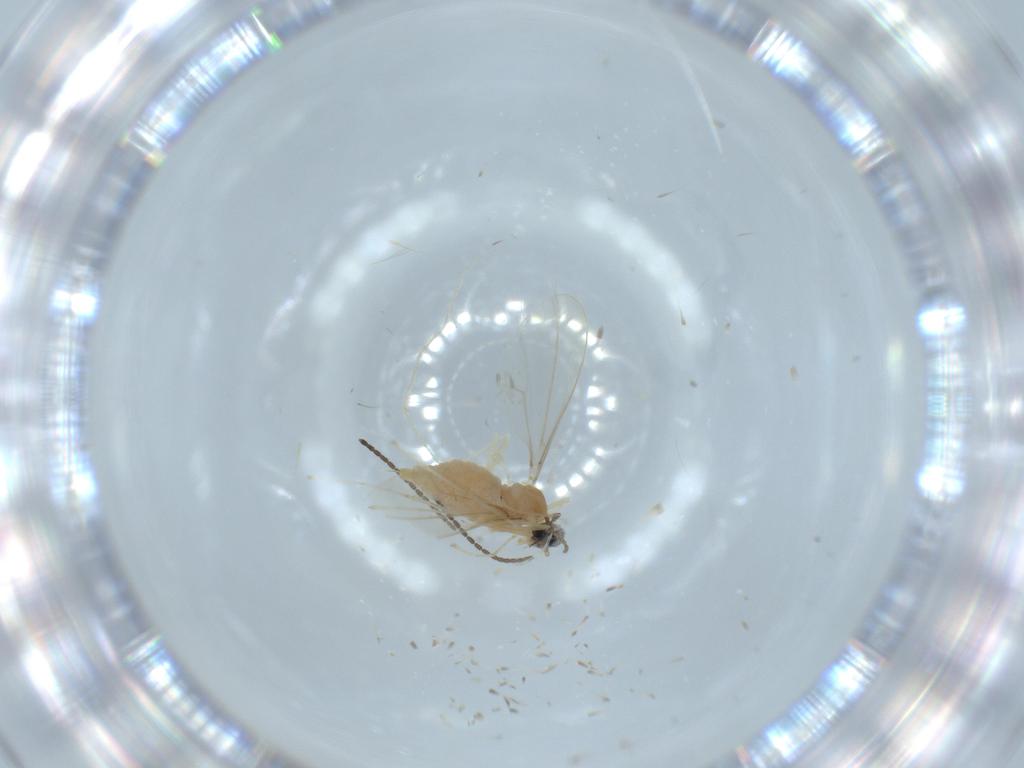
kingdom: Animalia
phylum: Arthropoda
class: Insecta
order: Diptera
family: Cecidomyiidae
